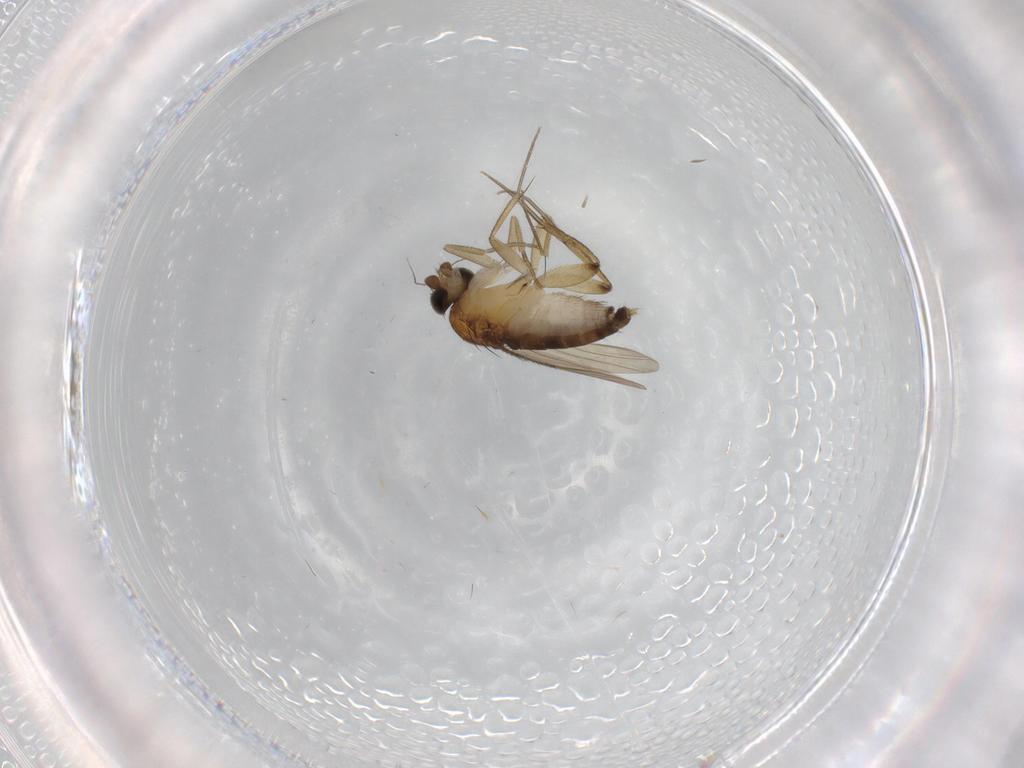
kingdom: Animalia
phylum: Arthropoda
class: Insecta
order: Diptera
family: Phoridae
